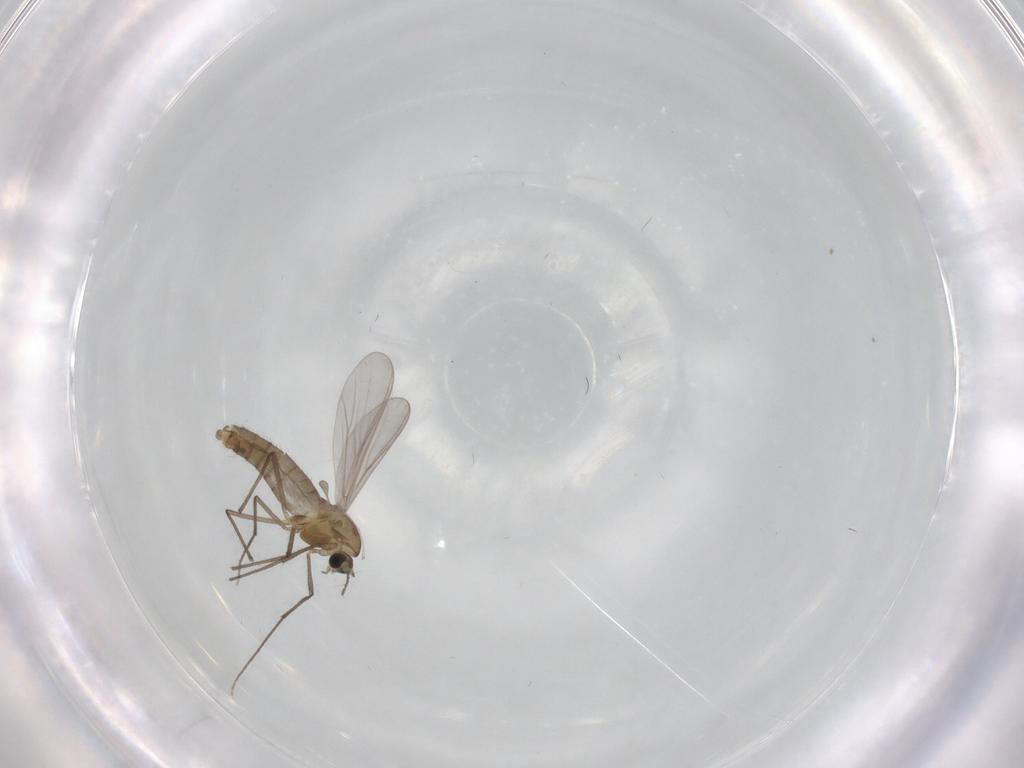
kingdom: Animalia
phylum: Arthropoda
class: Insecta
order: Diptera
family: Chironomidae
